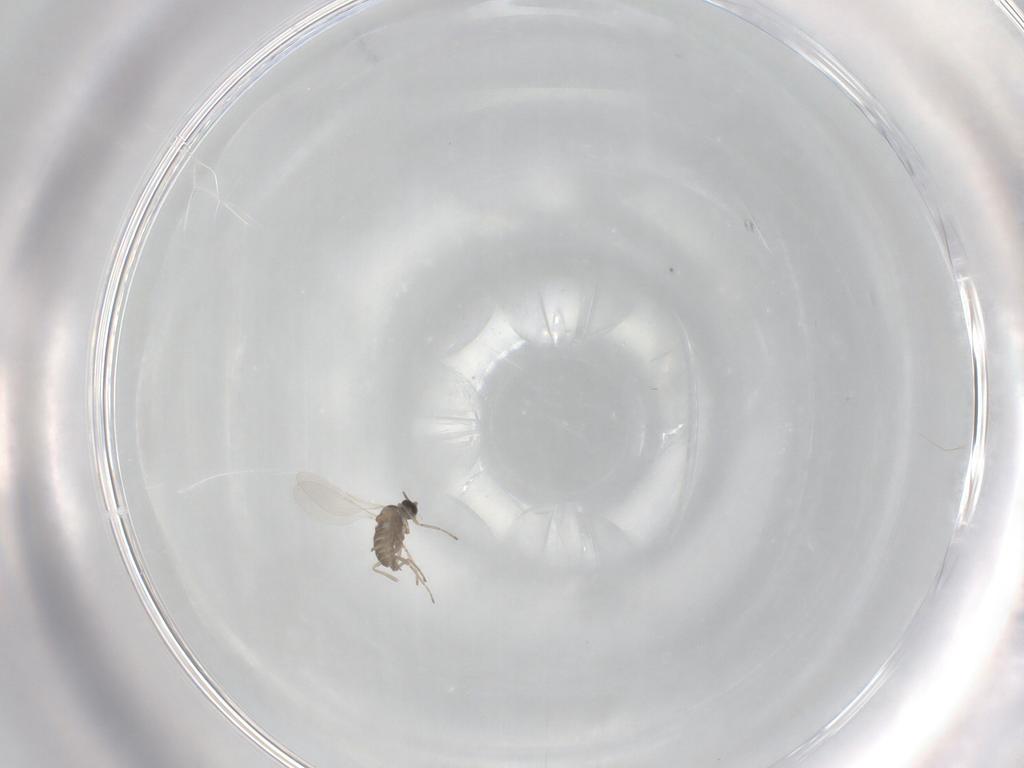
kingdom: Animalia
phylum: Arthropoda
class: Insecta
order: Diptera
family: Cecidomyiidae
